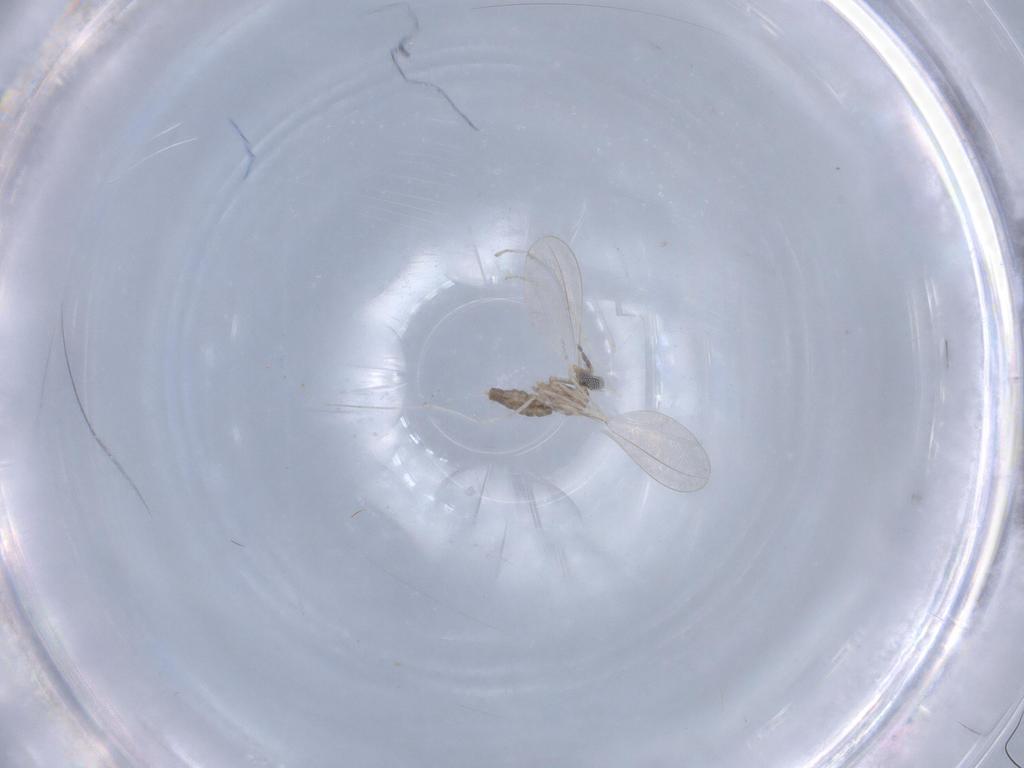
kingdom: Animalia
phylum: Arthropoda
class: Insecta
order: Diptera
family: Cecidomyiidae
